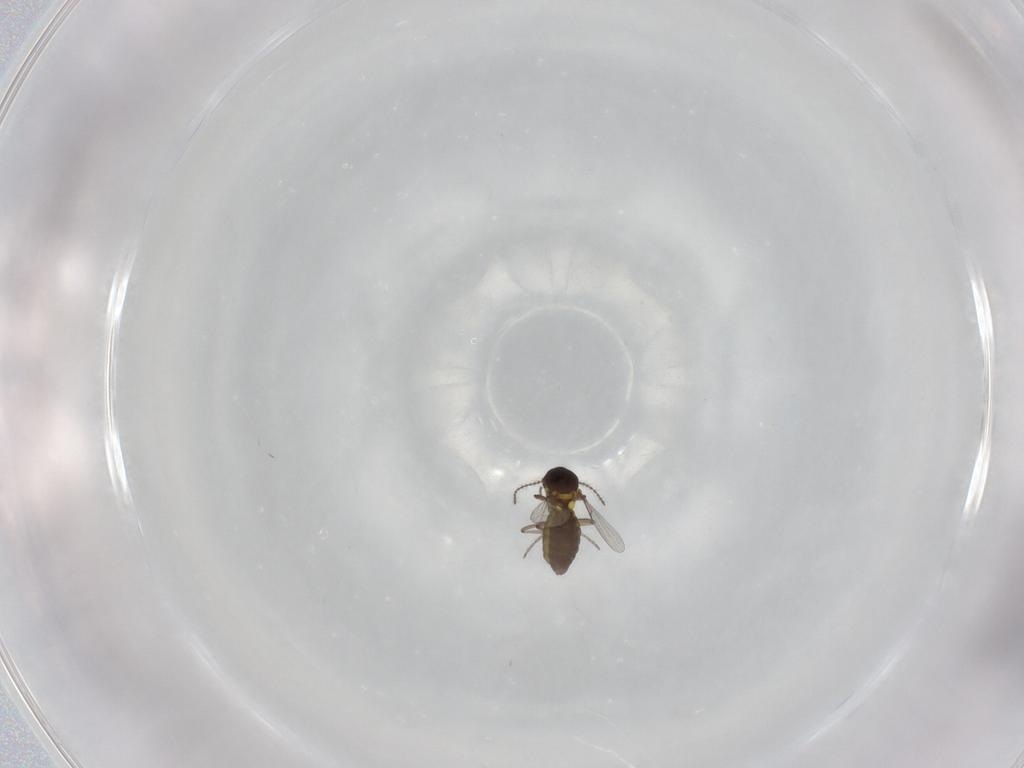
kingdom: Animalia
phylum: Arthropoda
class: Insecta
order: Diptera
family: Ceratopogonidae
